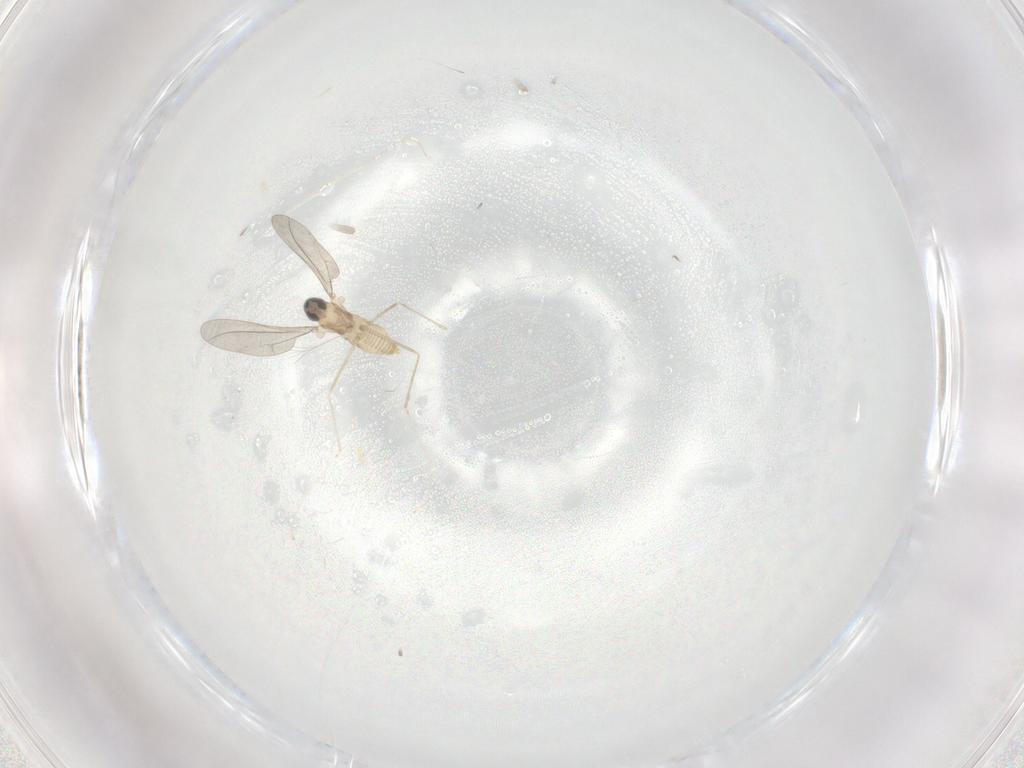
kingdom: Animalia
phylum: Arthropoda
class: Insecta
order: Diptera
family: Cecidomyiidae
